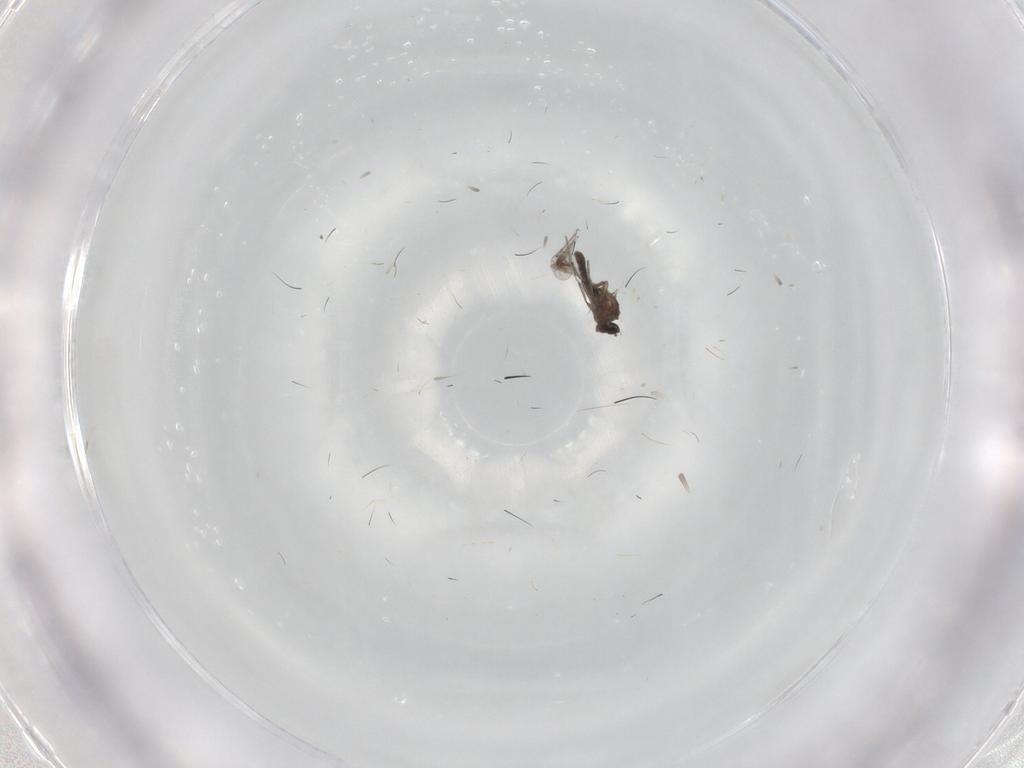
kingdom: Animalia
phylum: Arthropoda
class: Insecta
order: Diptera
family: Ceratopogonidae
